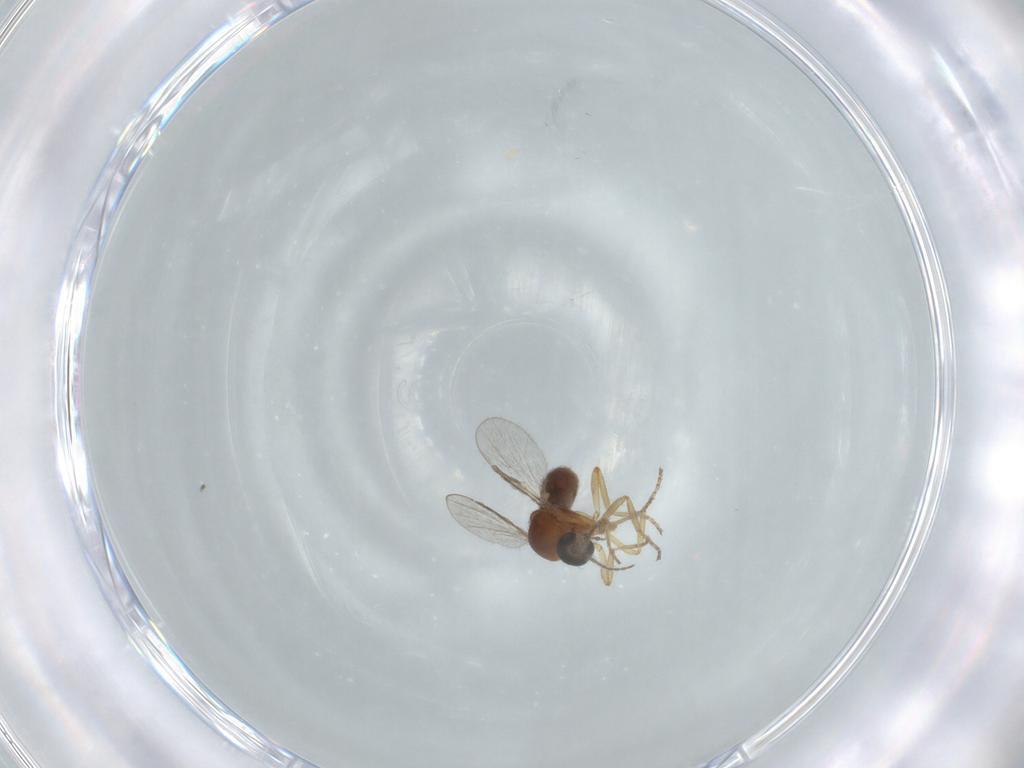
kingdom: Animalia
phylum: Arthropoda
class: Insecta
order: Diptera
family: Ceratopogonidae
